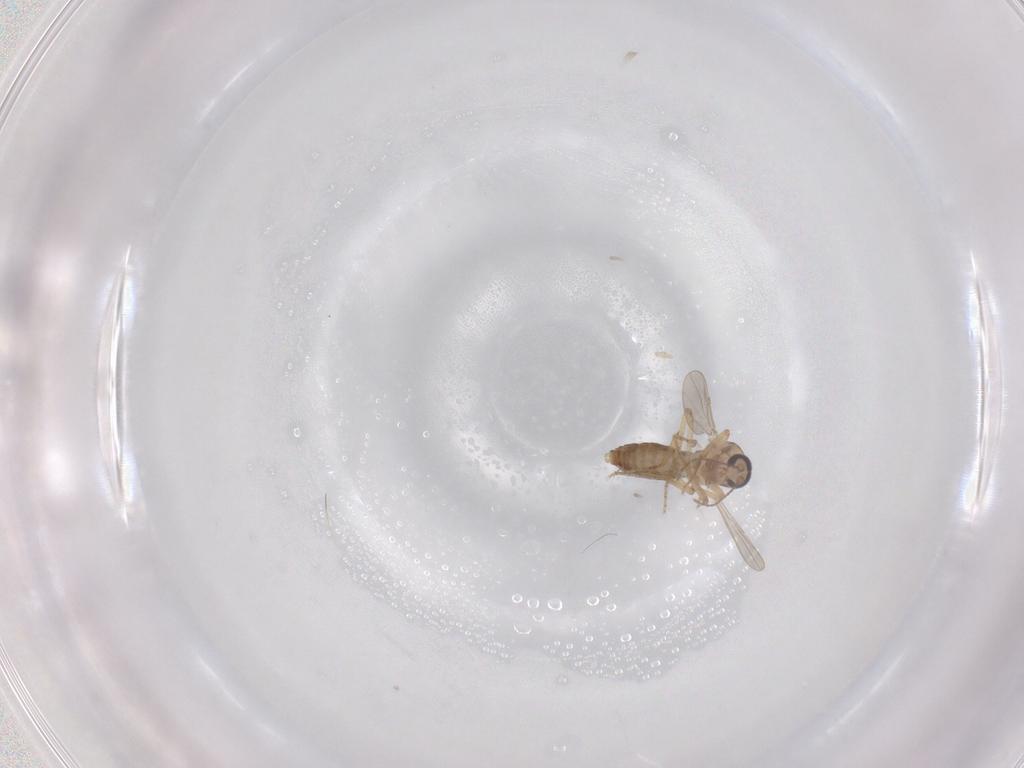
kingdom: Animalia
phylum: Arthropoda
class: Insecta
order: Diptera
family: Ceratopogonidae
